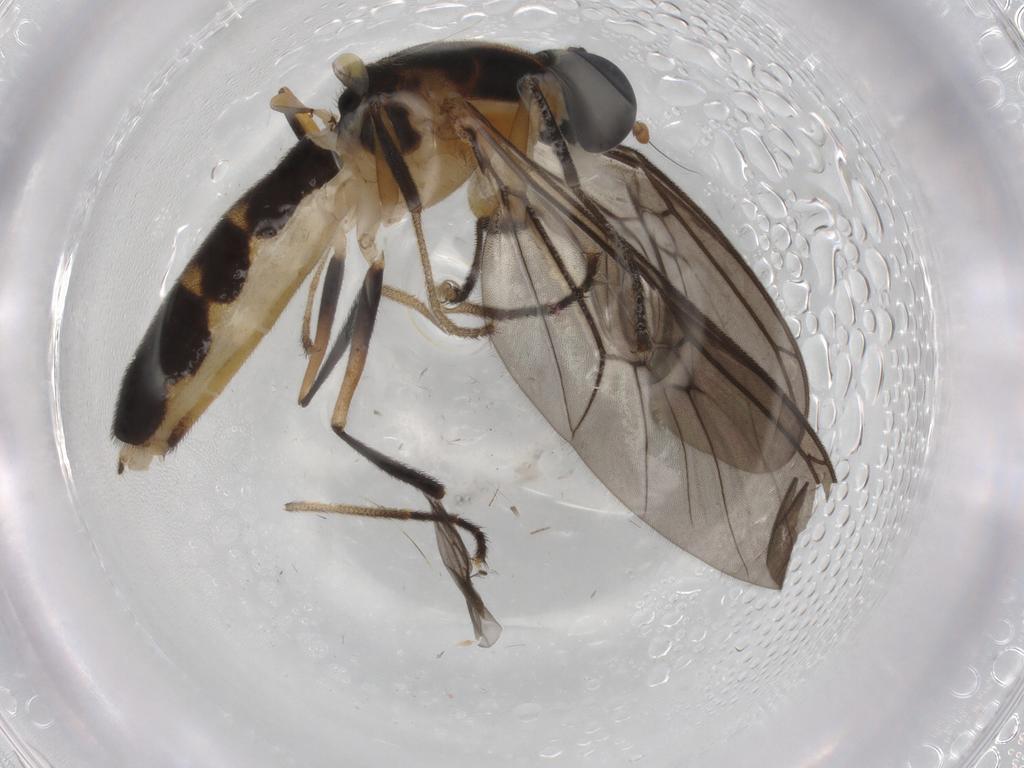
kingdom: Animalia
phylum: Arthropoda
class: Insecta
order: Diptera
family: Phoridae
